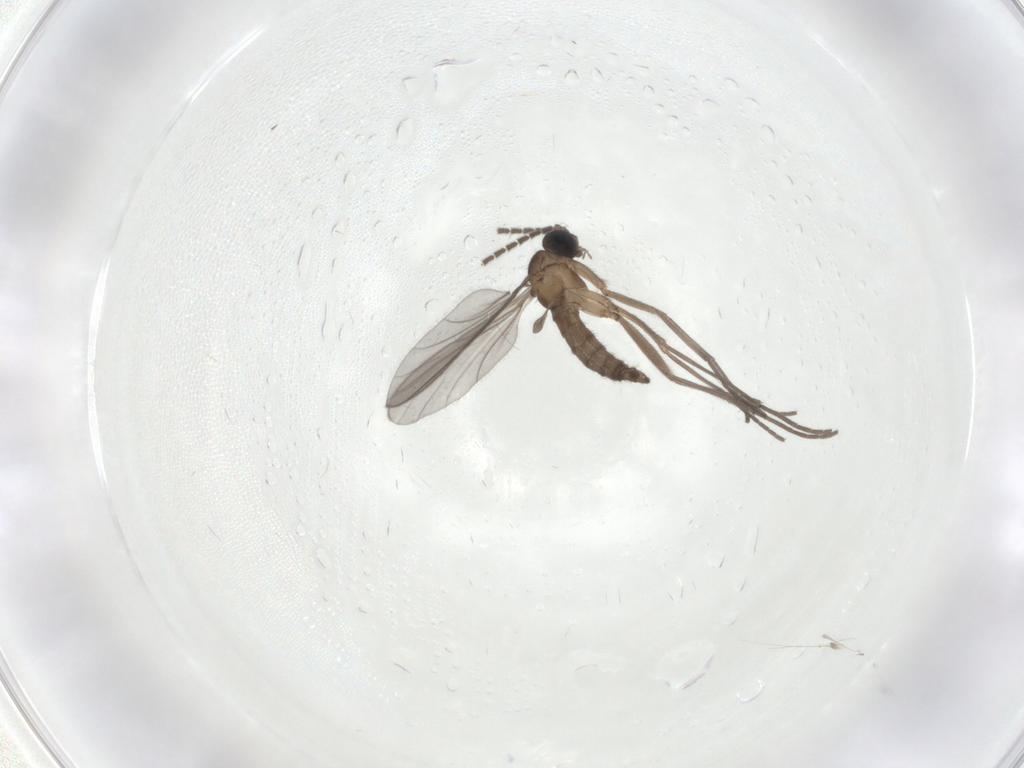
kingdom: Animalia
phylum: Arthropoda
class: Insecta
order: Diptera
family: Sciaridae
